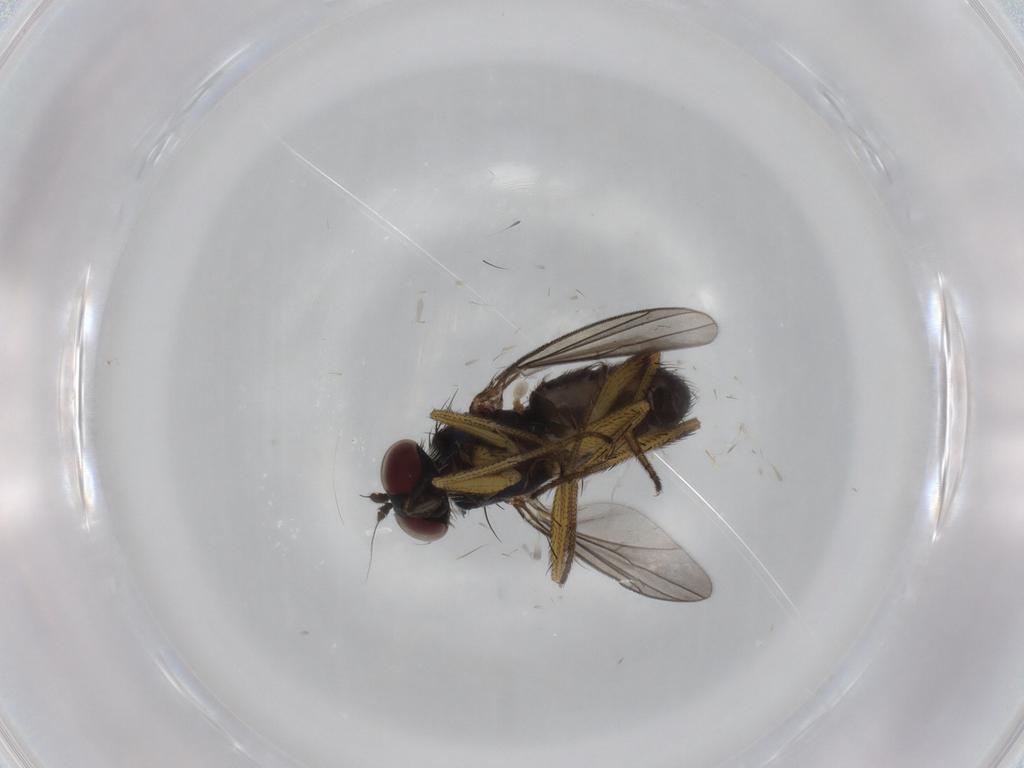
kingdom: Animalia
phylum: Arthropoda
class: Insecta
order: Diptera
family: Dolichopodidae
